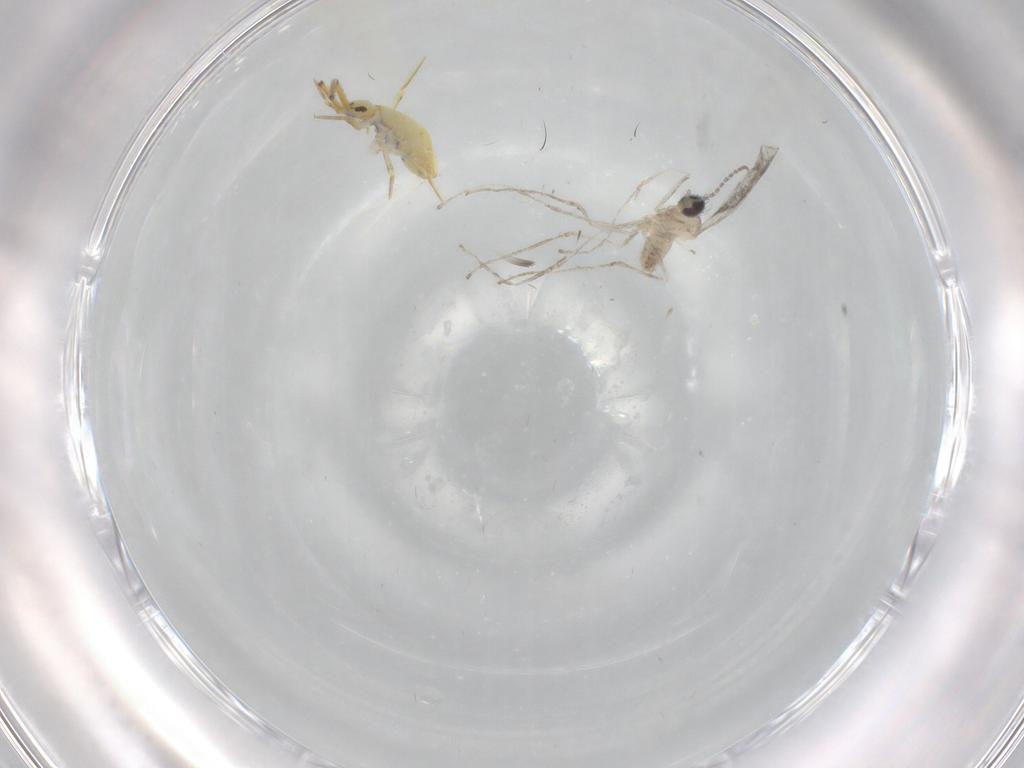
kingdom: Animalia
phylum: Arthropoda
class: Insecta
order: Diptera
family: Cecidomyiidae
